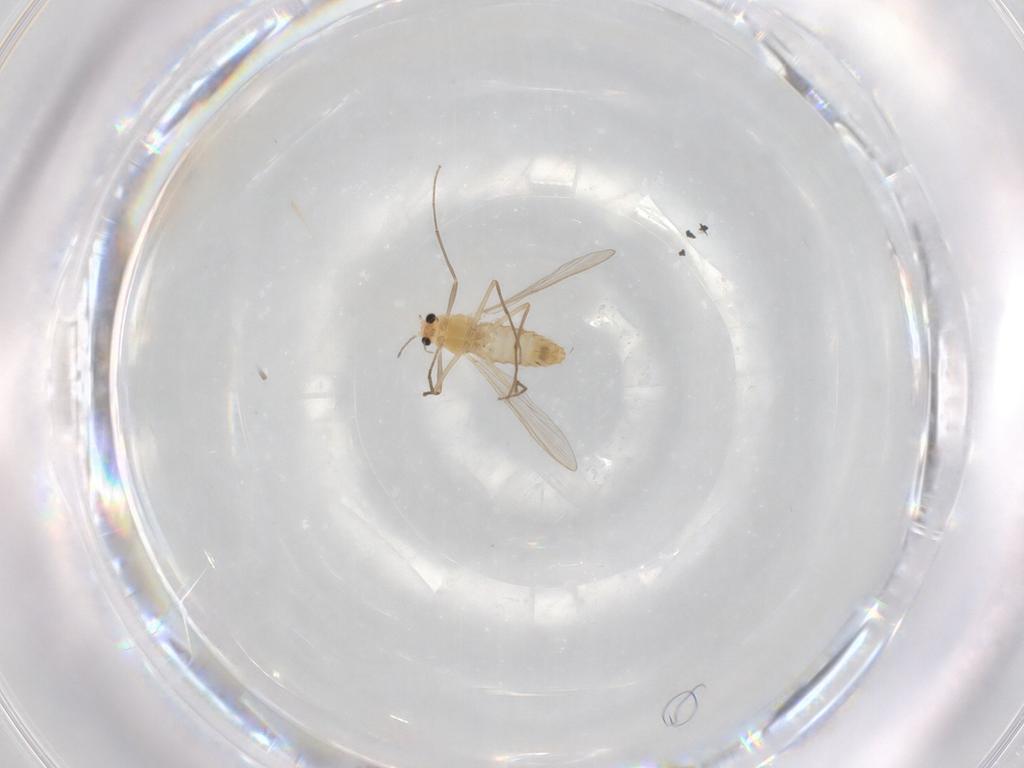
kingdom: Animalia
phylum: Arthropoda
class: Insecta
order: Diptera
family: Chironomidae
